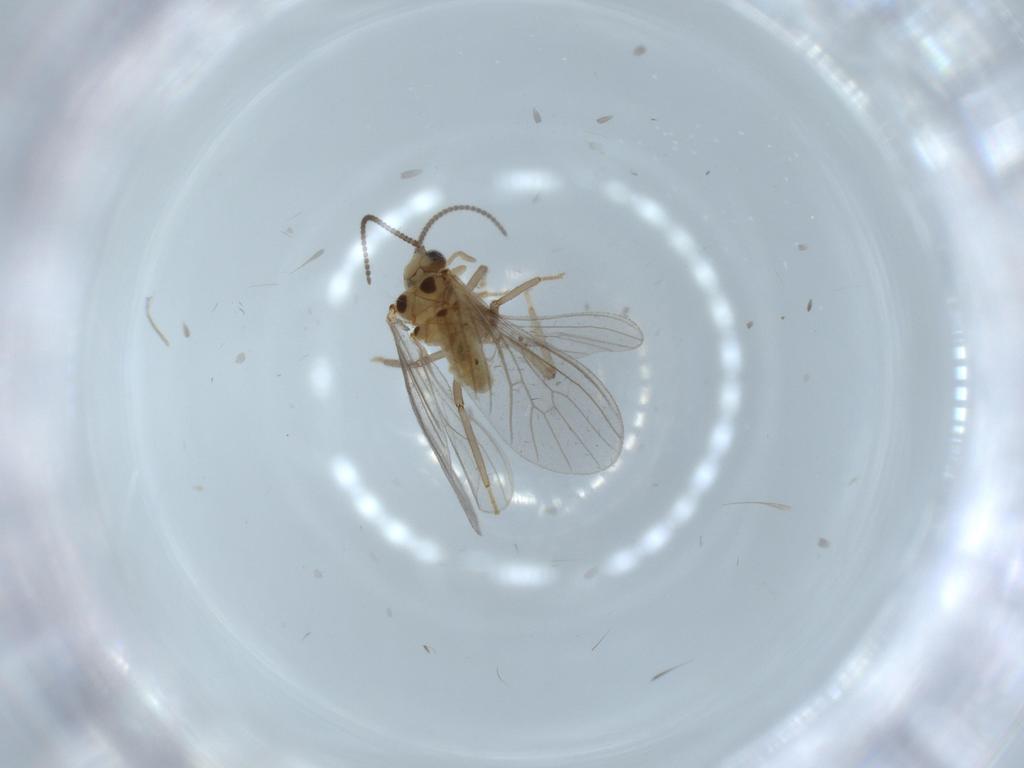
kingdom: Animalia
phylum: Arthropoda
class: Insecta
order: Neuroptera
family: Coniopterygidae
